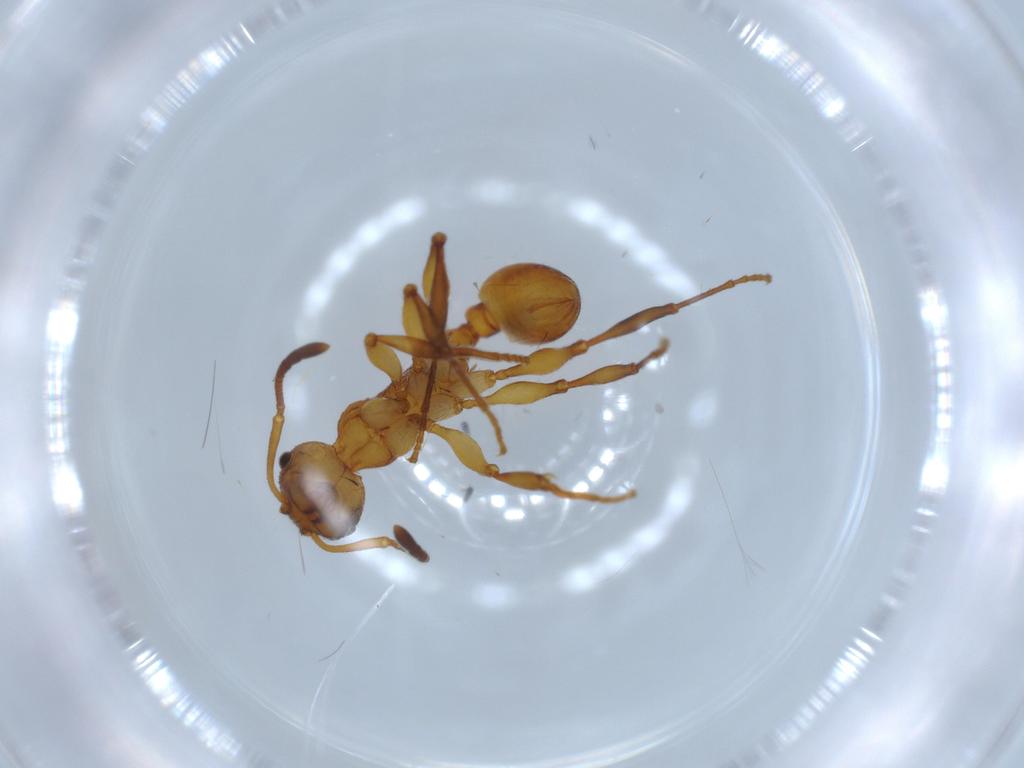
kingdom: Animalia
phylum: Arthropoda
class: Insecta
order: Hymenoptera
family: Formicidae
